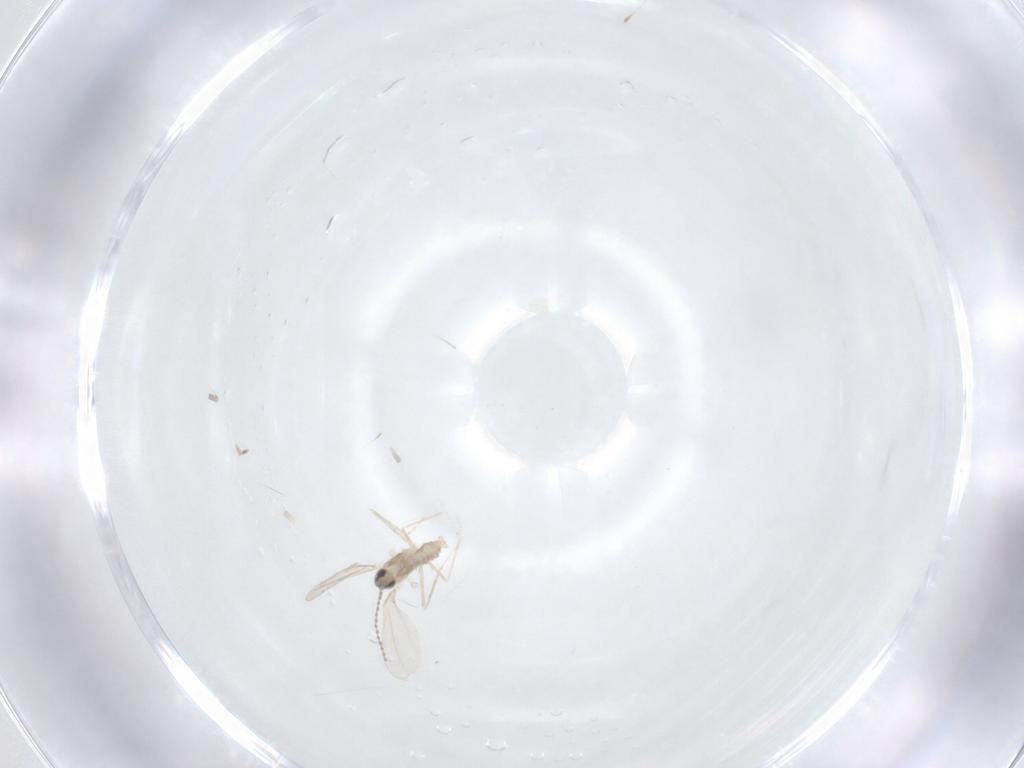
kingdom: Animalia
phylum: Arthropoda
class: Insecta
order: Diptera
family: Cecidomyiidae
